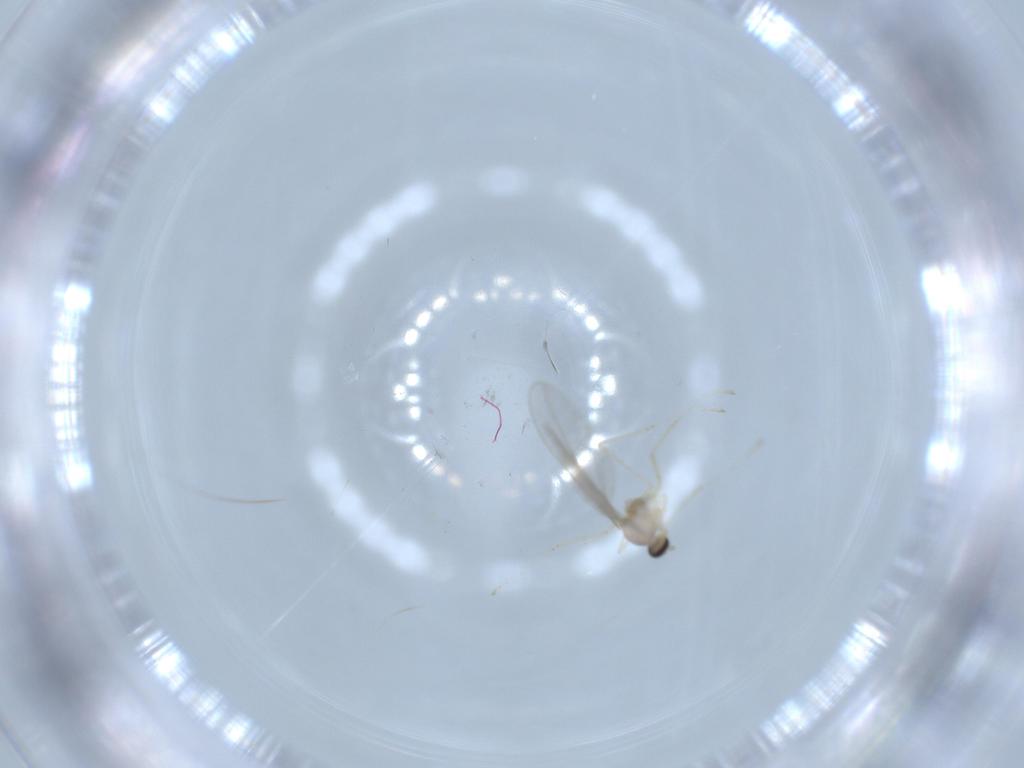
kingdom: Animalia
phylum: Arthropoda
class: Insecta
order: Diptera
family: Cecidomyiidae
